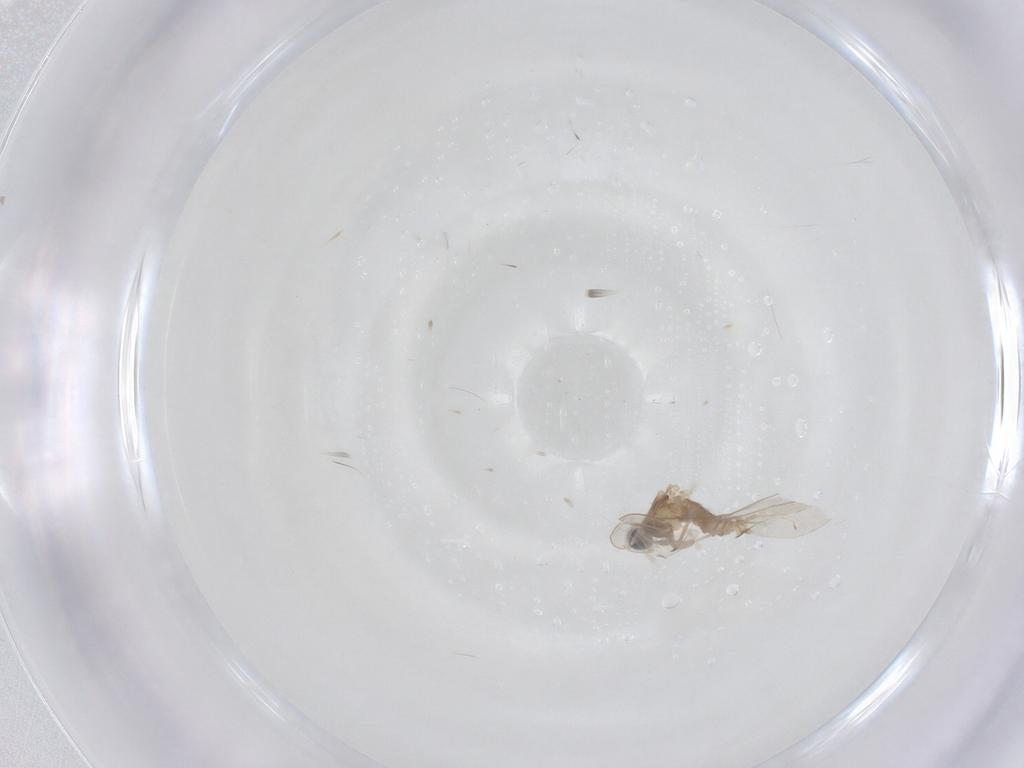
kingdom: Animalia
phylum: Arthropoda
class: Insecta
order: Diptera
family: Cecidomyiidae
